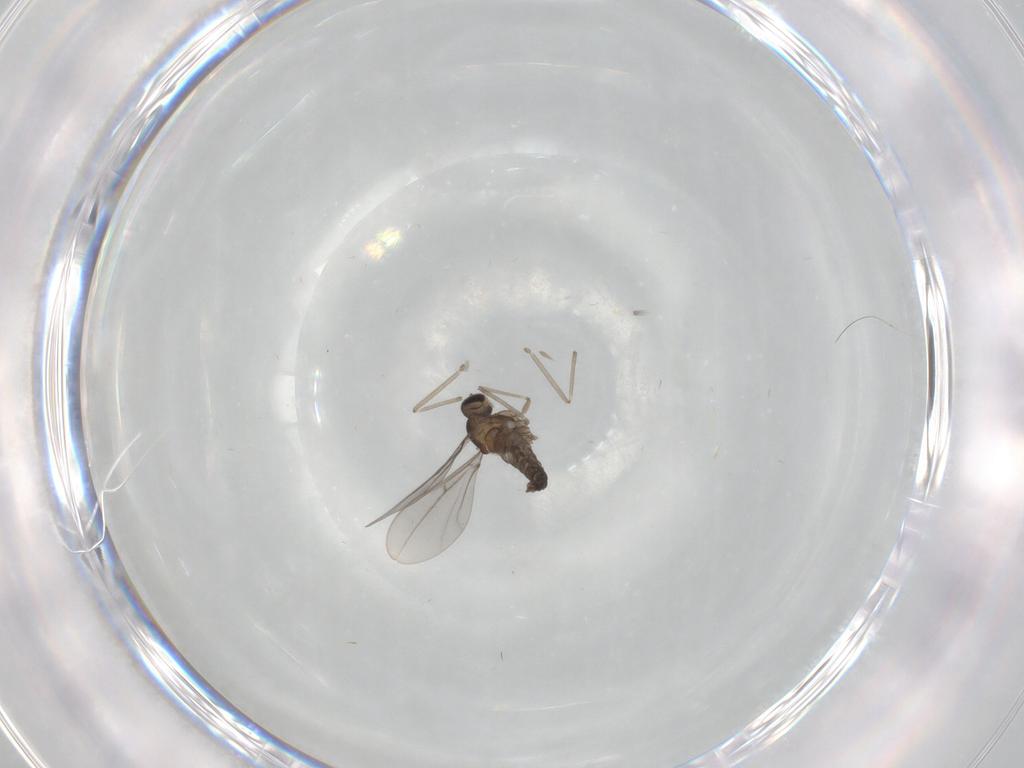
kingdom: Animalia
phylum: Arthropoda
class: Insecta
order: Diptera
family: Cecidomyiidae
